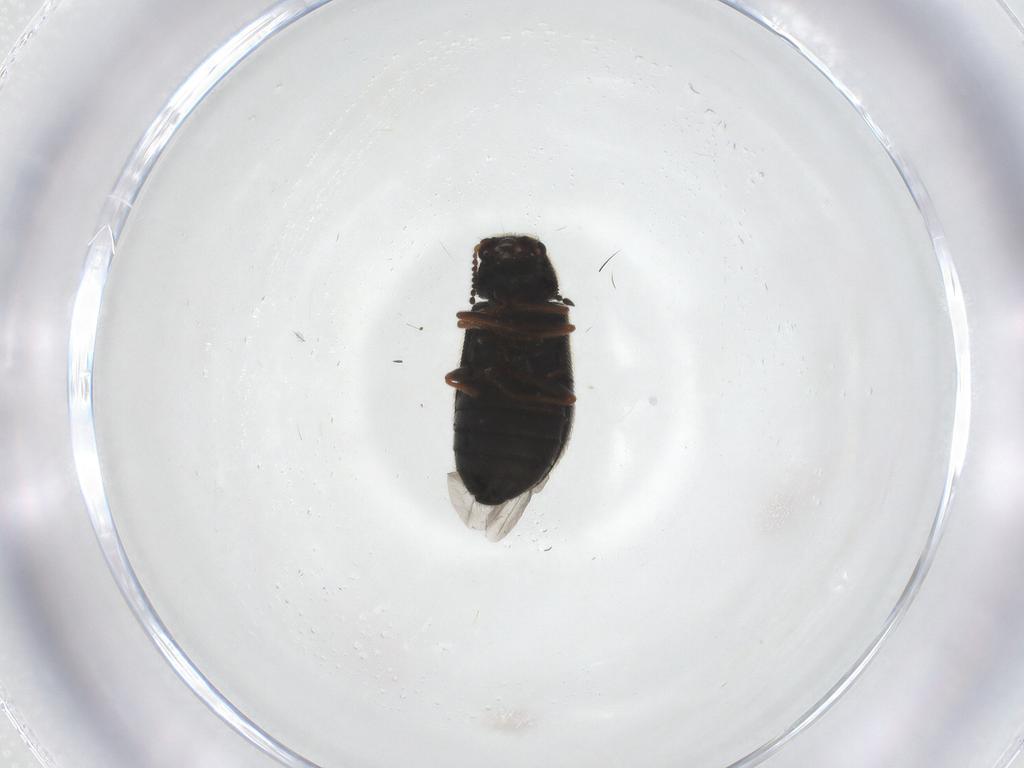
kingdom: Animalia
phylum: Arthropoda
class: Insecta
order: Coleoptera
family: Melyridae
